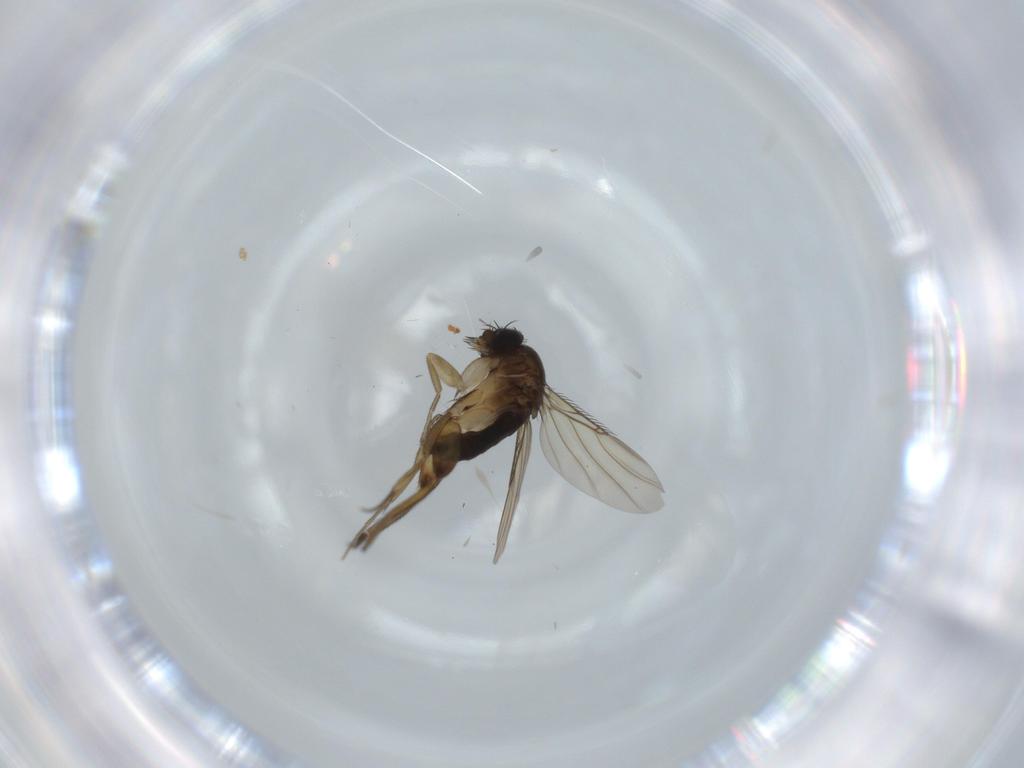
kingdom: Animalia
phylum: Arthropoda
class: Insecta
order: Diptera
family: Phoridae
